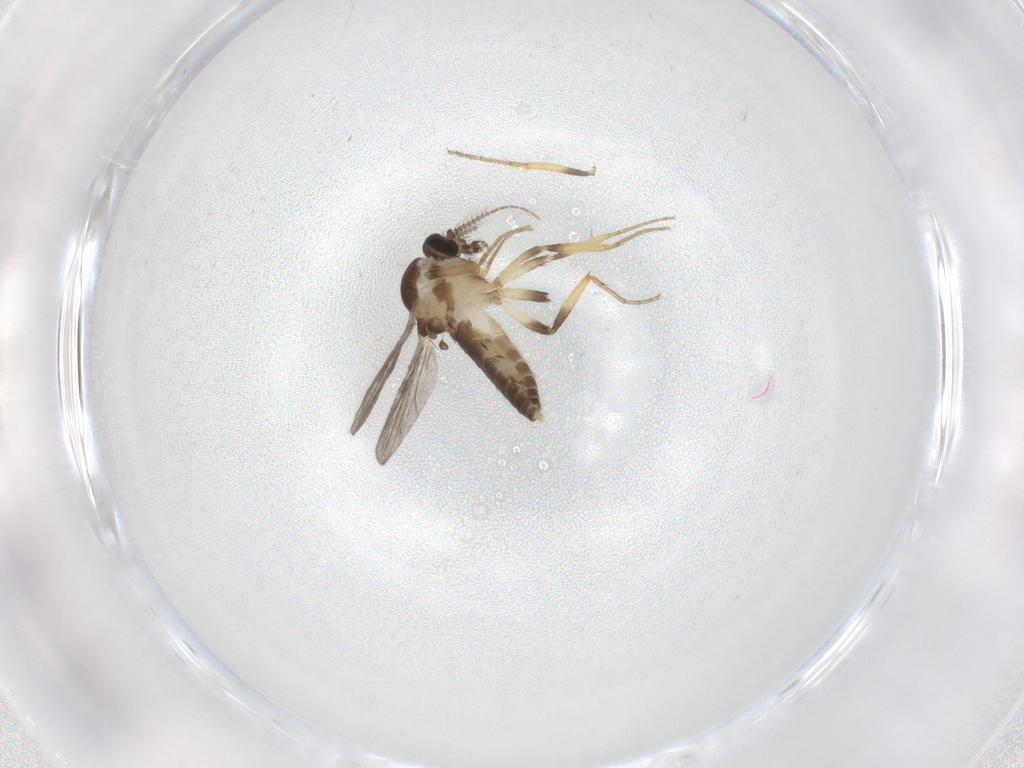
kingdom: Animalia
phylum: Arthropoda
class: Insecta
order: Diptera
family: Ceratopogonidae
